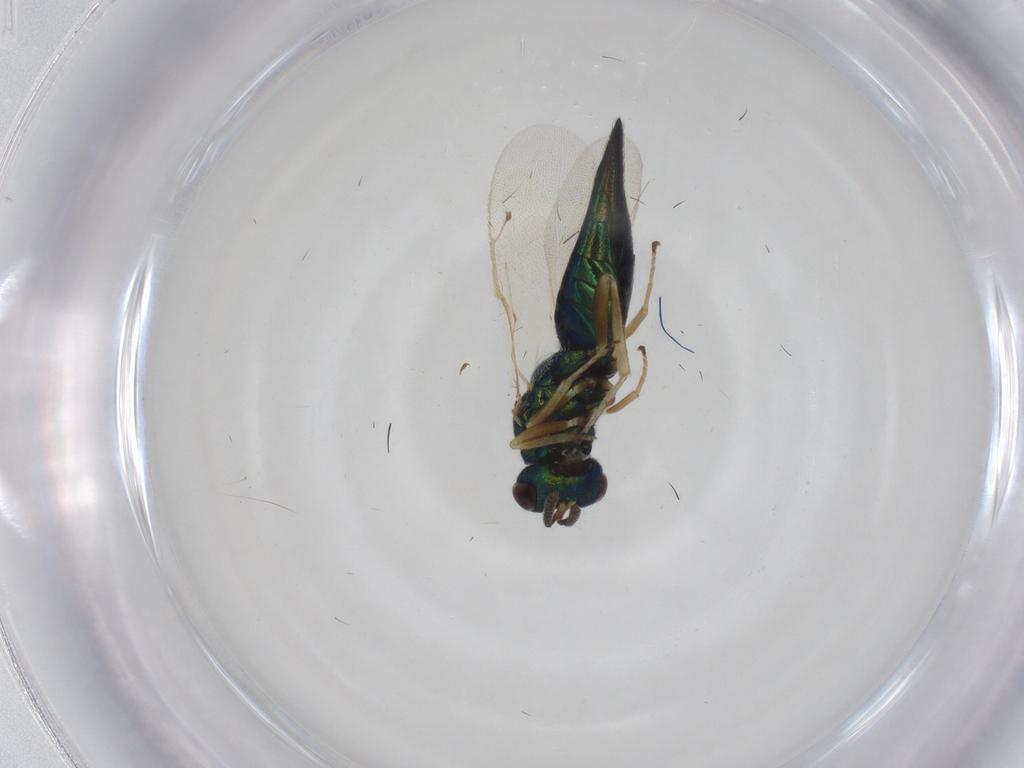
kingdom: Animalia
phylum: Arthropoda
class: Insecta
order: Hymenoptera
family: Pteromalidae
